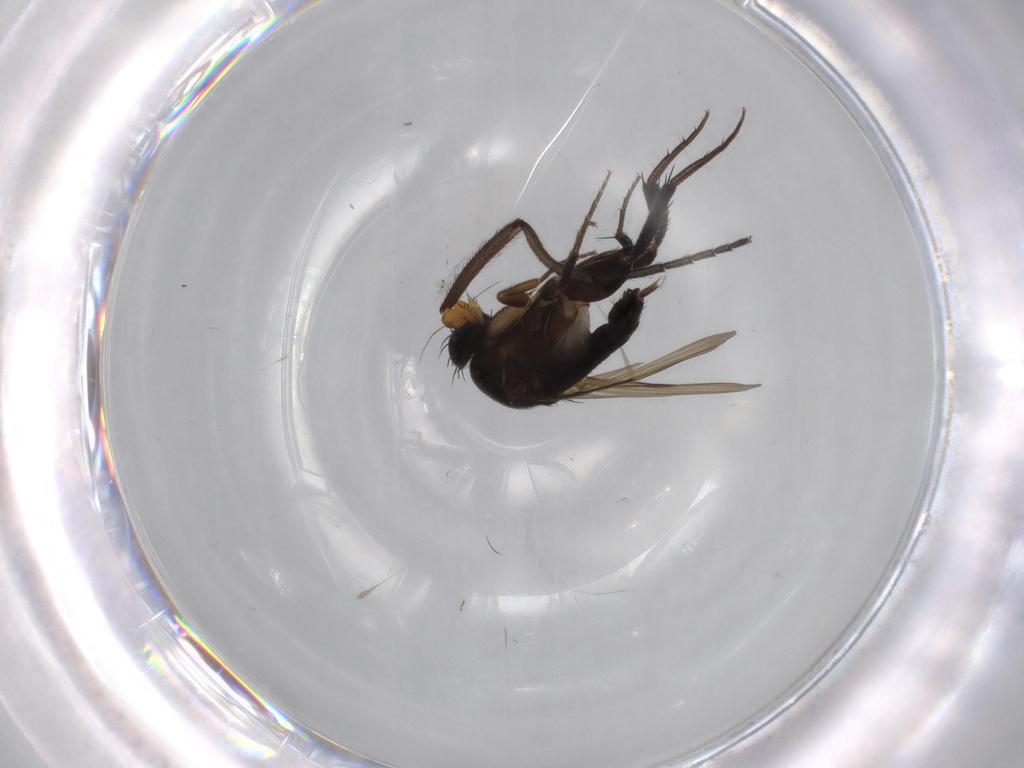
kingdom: Animalia
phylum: Arthropoda
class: Insecta
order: Diptera
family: Sciaridae
